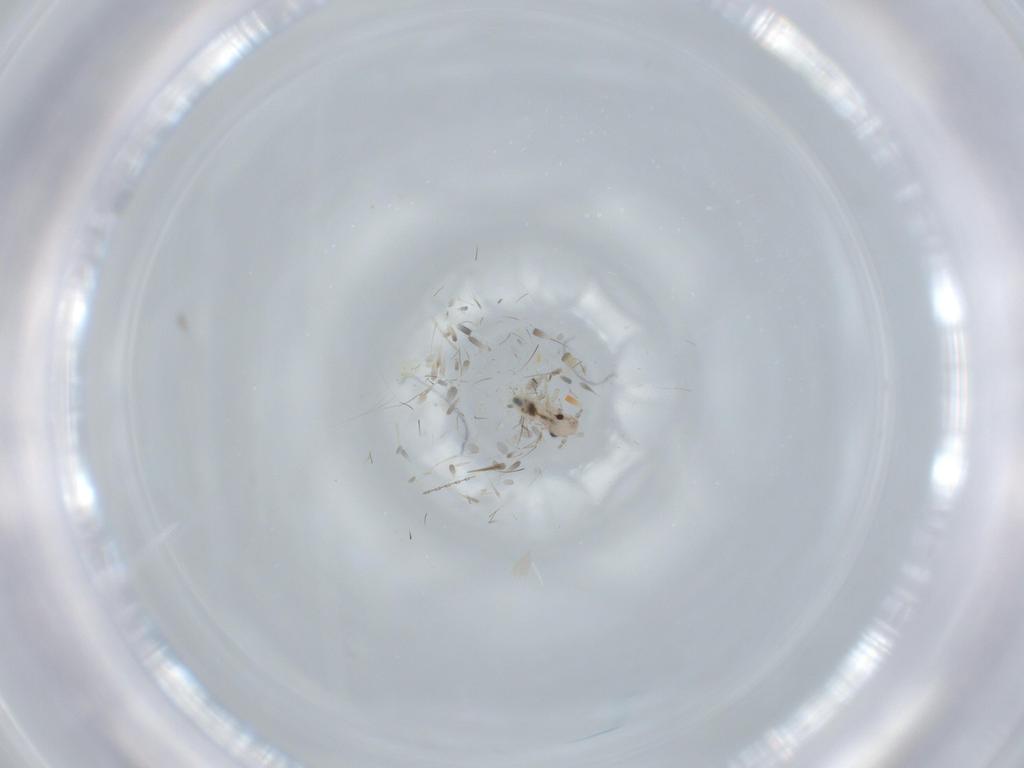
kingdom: Animalia
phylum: Arthropoda
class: Insecta
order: Psocodea
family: Lepidopsocidae
